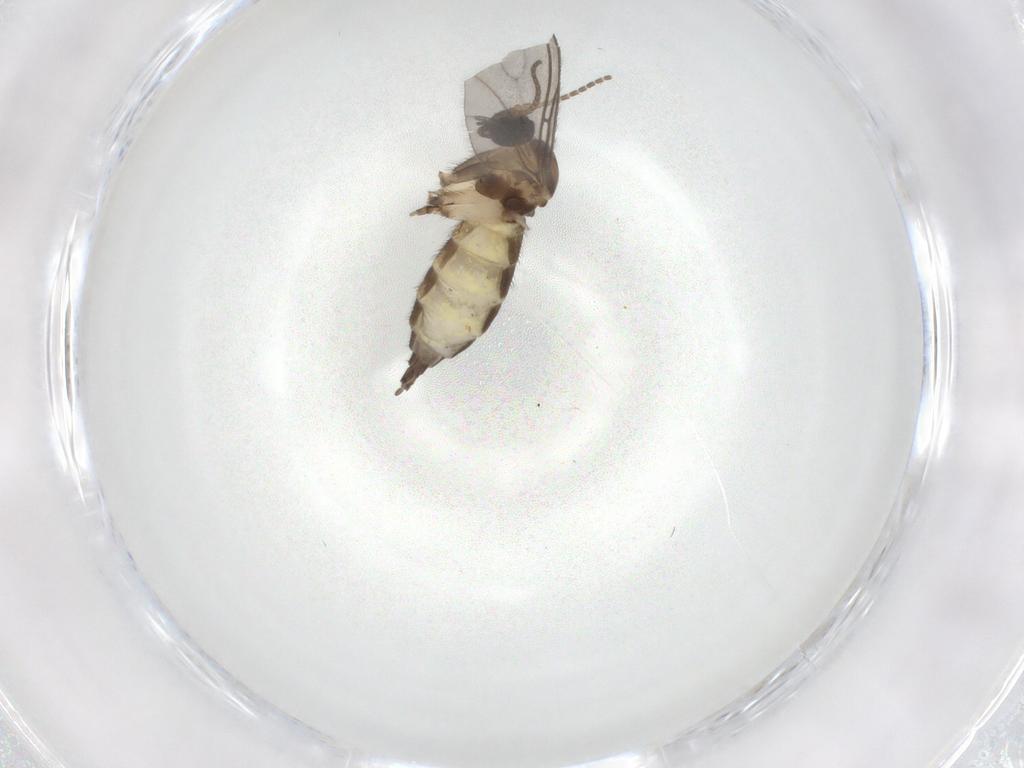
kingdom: Animalia
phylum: Arthropoda
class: Insecta
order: Diptera
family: Sciaridae
